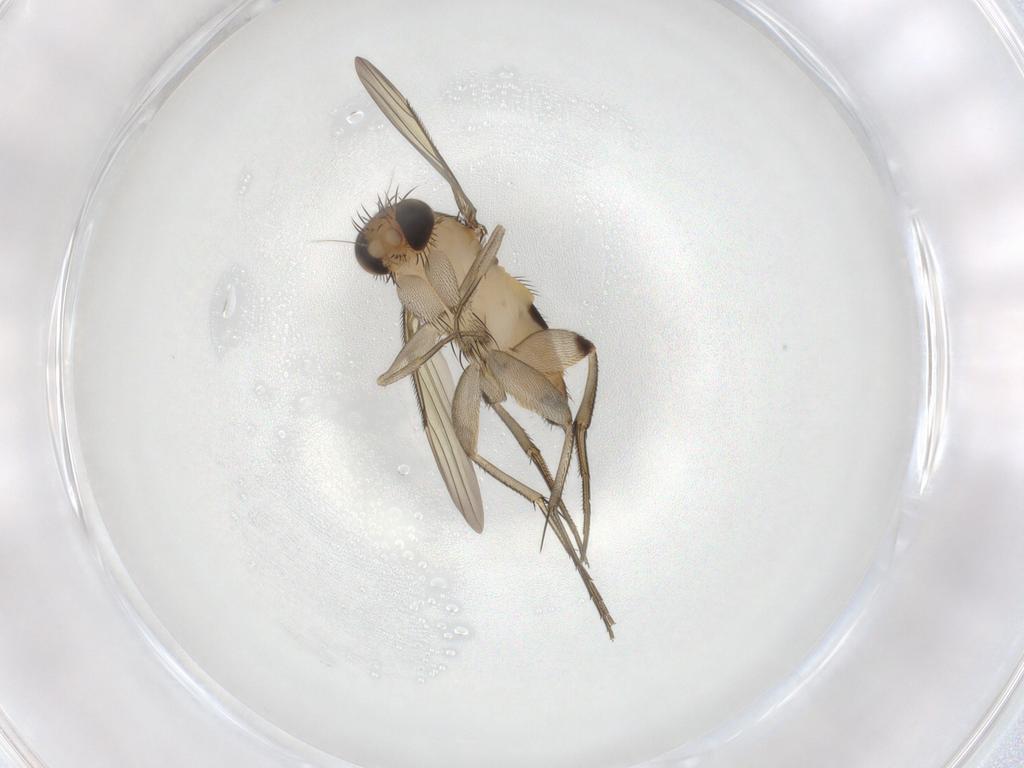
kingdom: Animalia
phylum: Arthropoda
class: Insecta
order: Diptera
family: Phoridae
